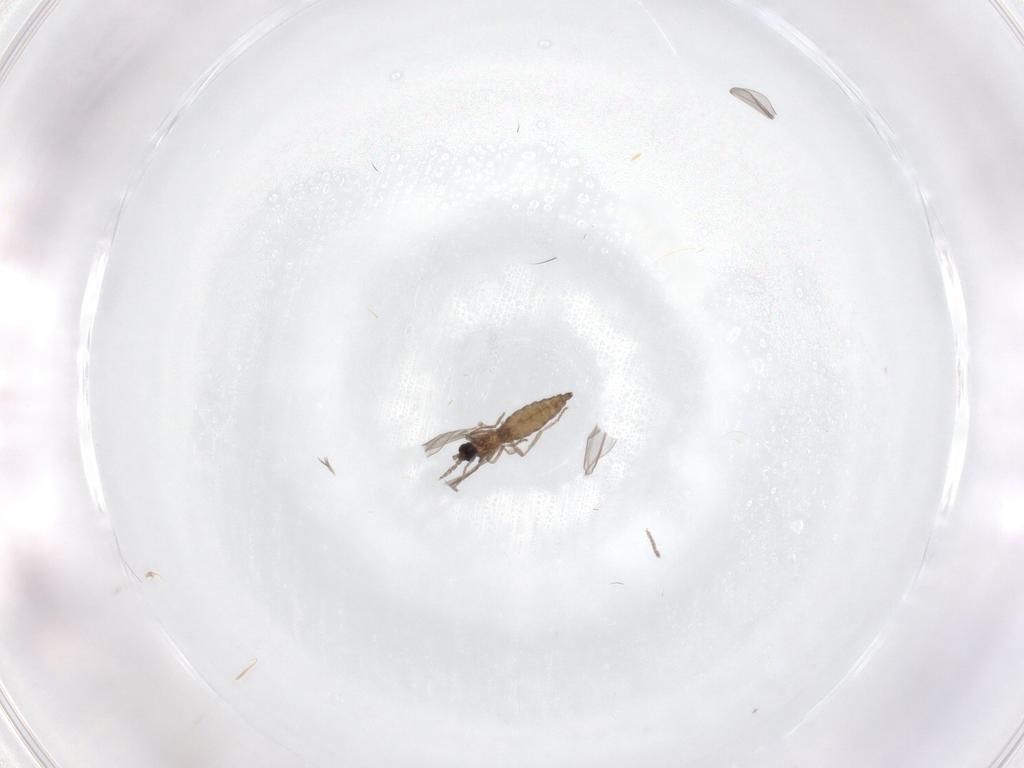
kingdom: Animalia
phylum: Arthropoda
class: Insecta
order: Diptera
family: Cecidomyiidae
